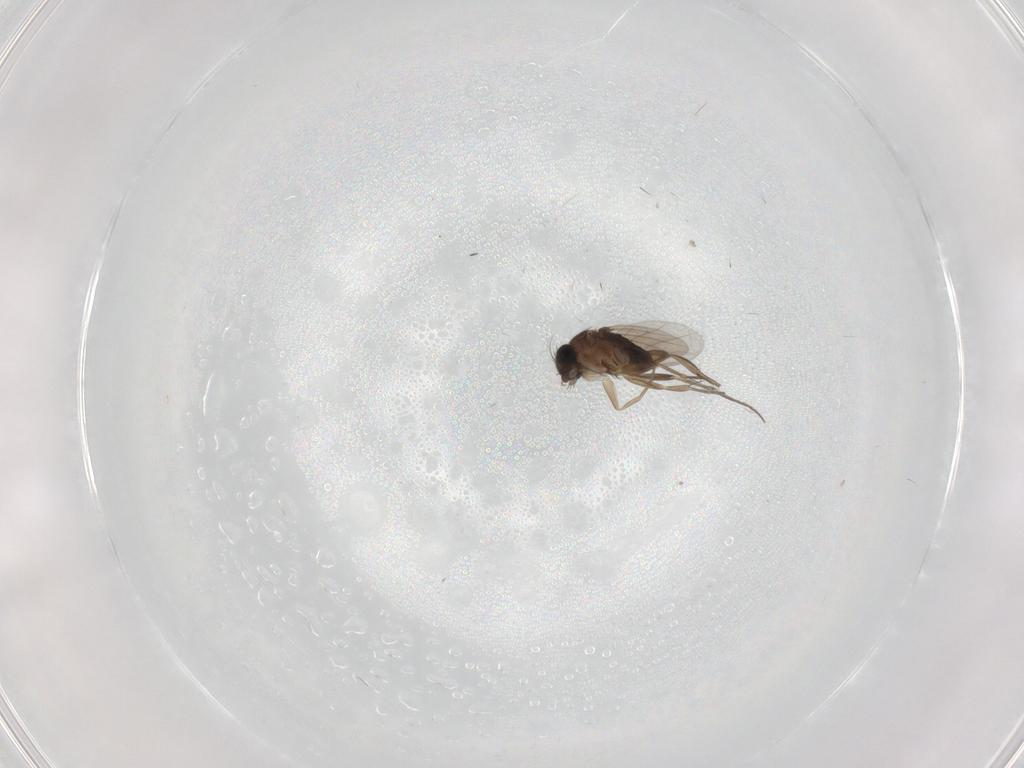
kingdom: Animalia
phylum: Arthropoda
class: Insecta
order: Diptera
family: Phoridae
